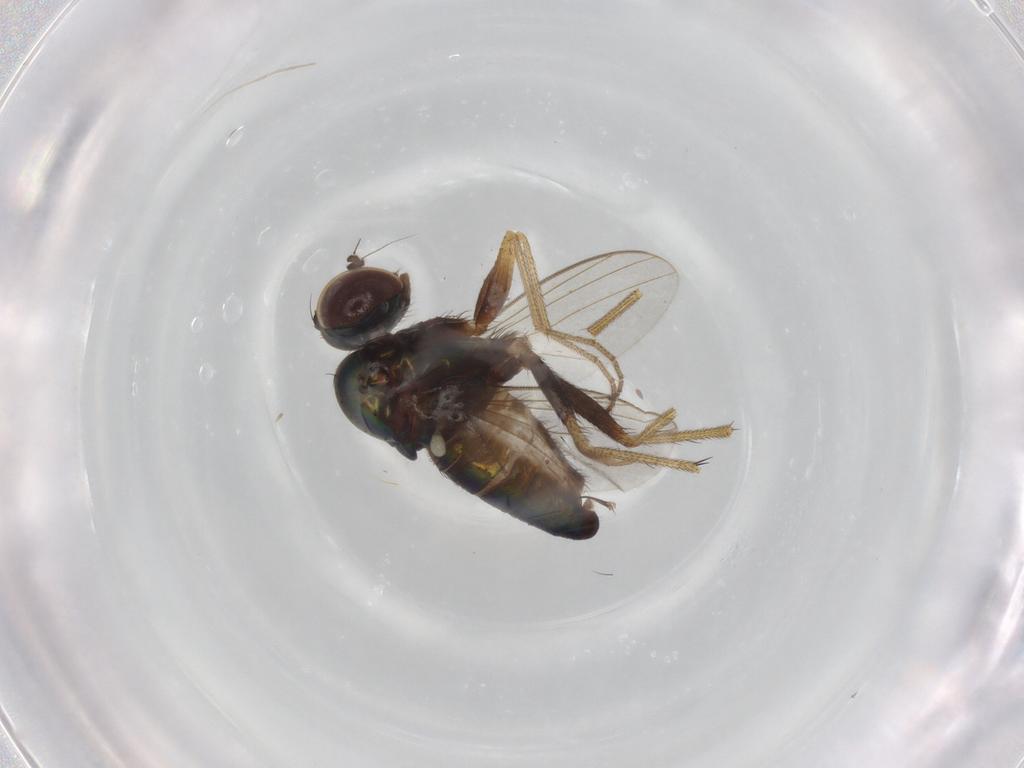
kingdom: Animalia
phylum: Arthropoda
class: Insecta
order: Diptera
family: Dolichopodidae
